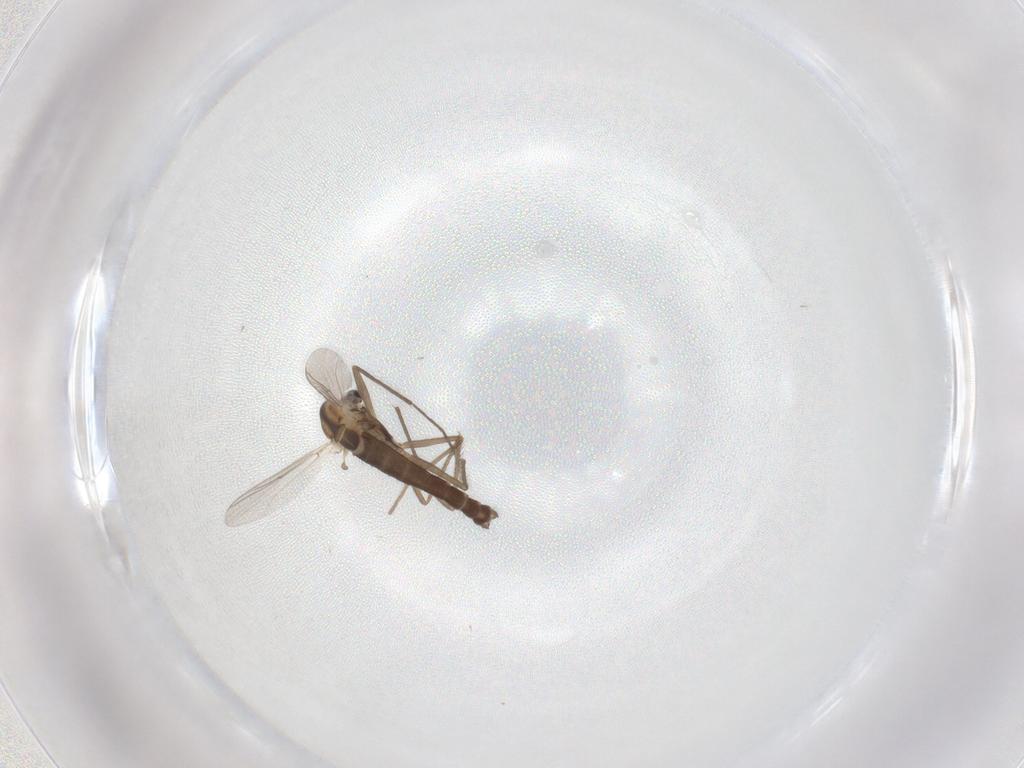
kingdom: Animalia
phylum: Arthropoda
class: Insecta
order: Diptera
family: Chironomidae
